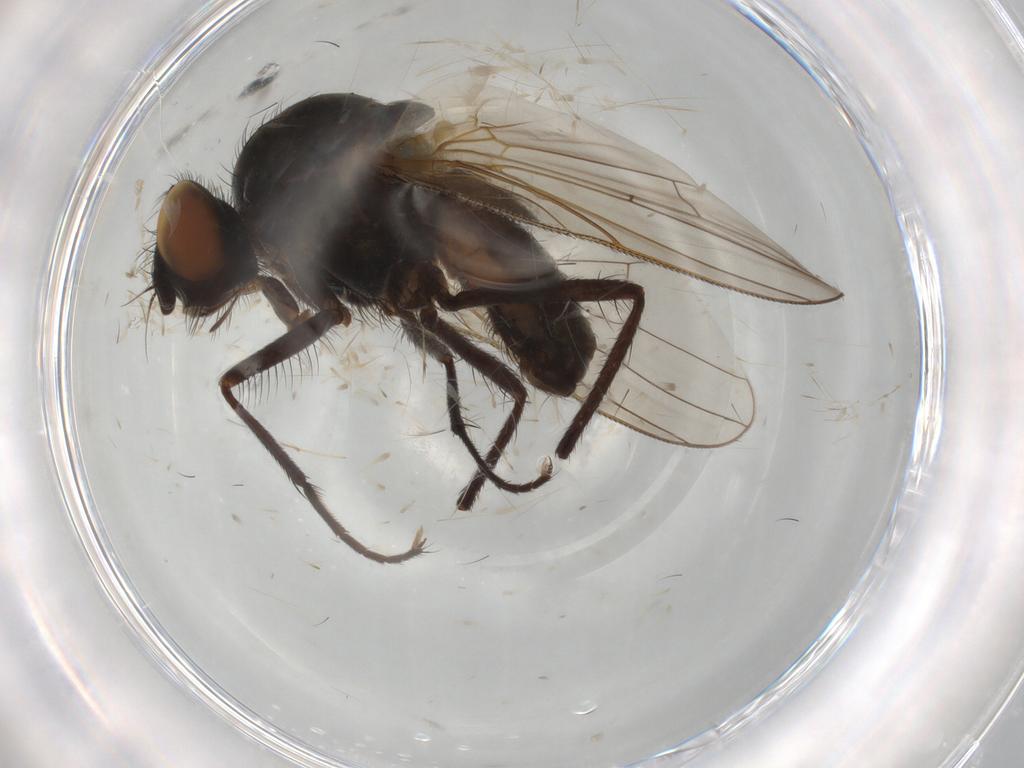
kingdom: Animalia
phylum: Arthropoda
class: Insecta
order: Diptera
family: Anthomyiidae
